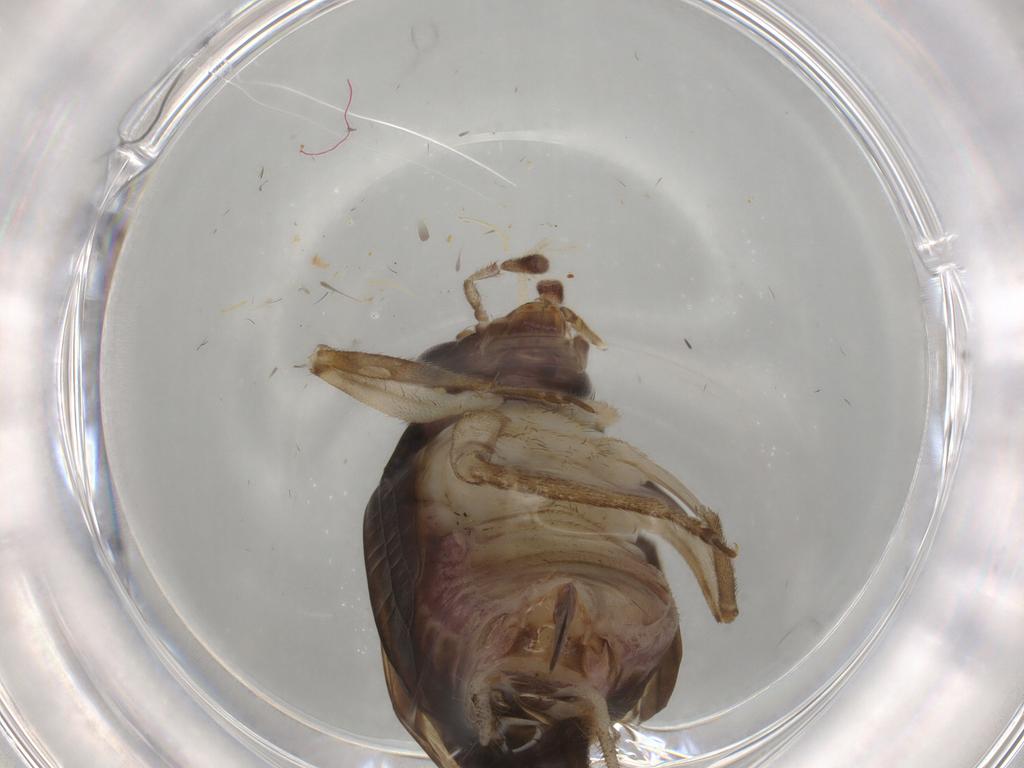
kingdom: Animalia
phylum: Arthropoda
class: Insecta
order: Orthoptera
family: Trigonidiidae
